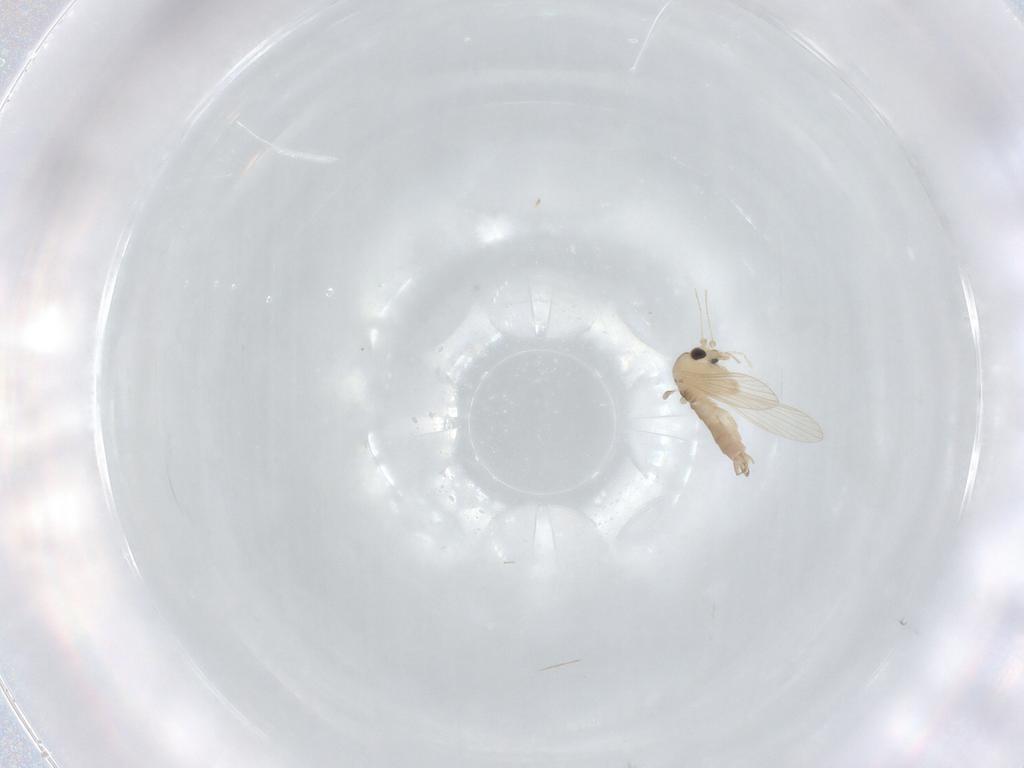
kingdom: Animalia
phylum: Arthropoda
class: Insecta
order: Diptera
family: Psychodidae
